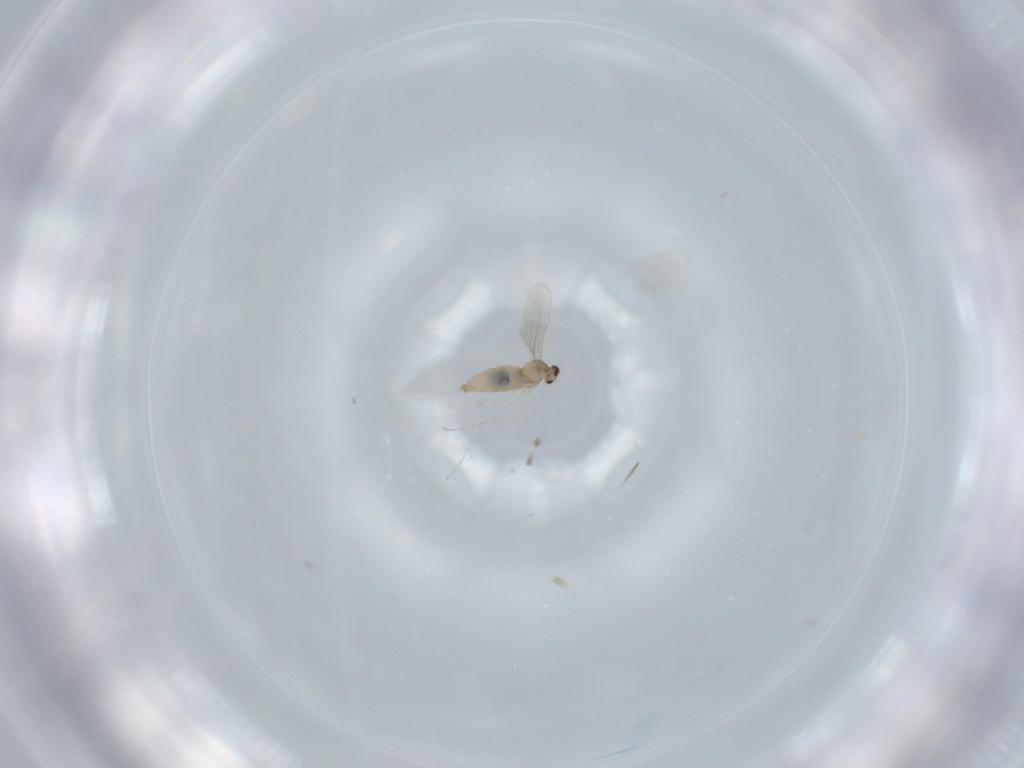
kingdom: Animalia
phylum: Arthropoda
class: Insecta
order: Diptera
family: Cecidomyiidae
